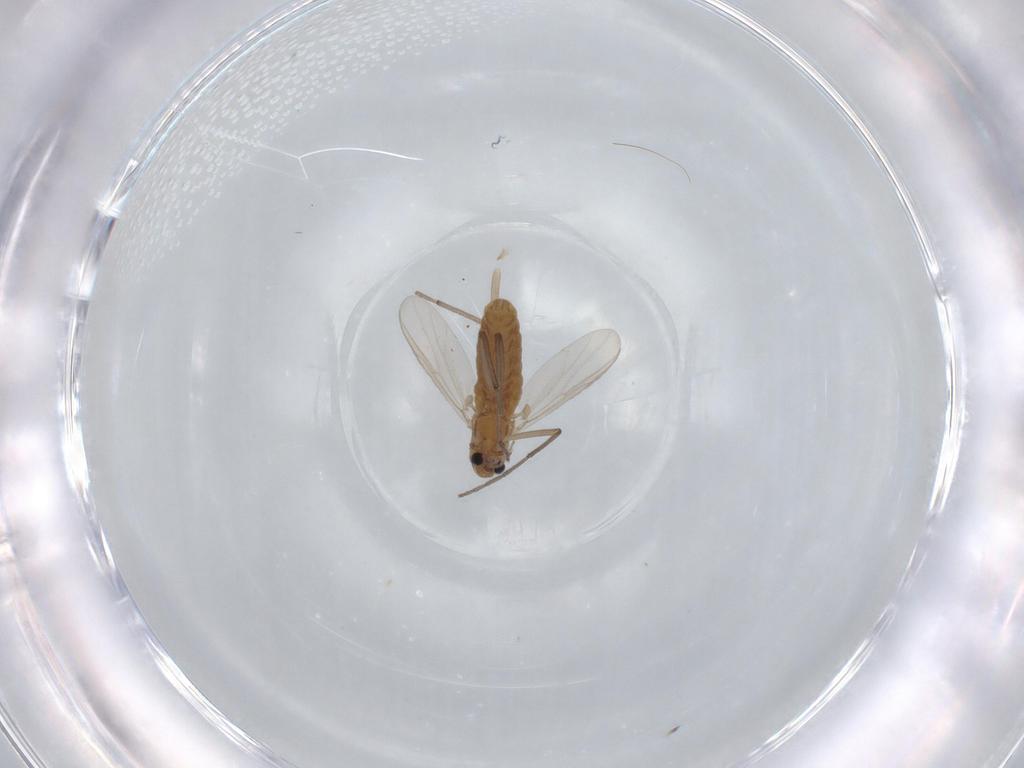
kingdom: Animalia
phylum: Arthropoda
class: Insecta
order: Diptera
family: Chironomidae
